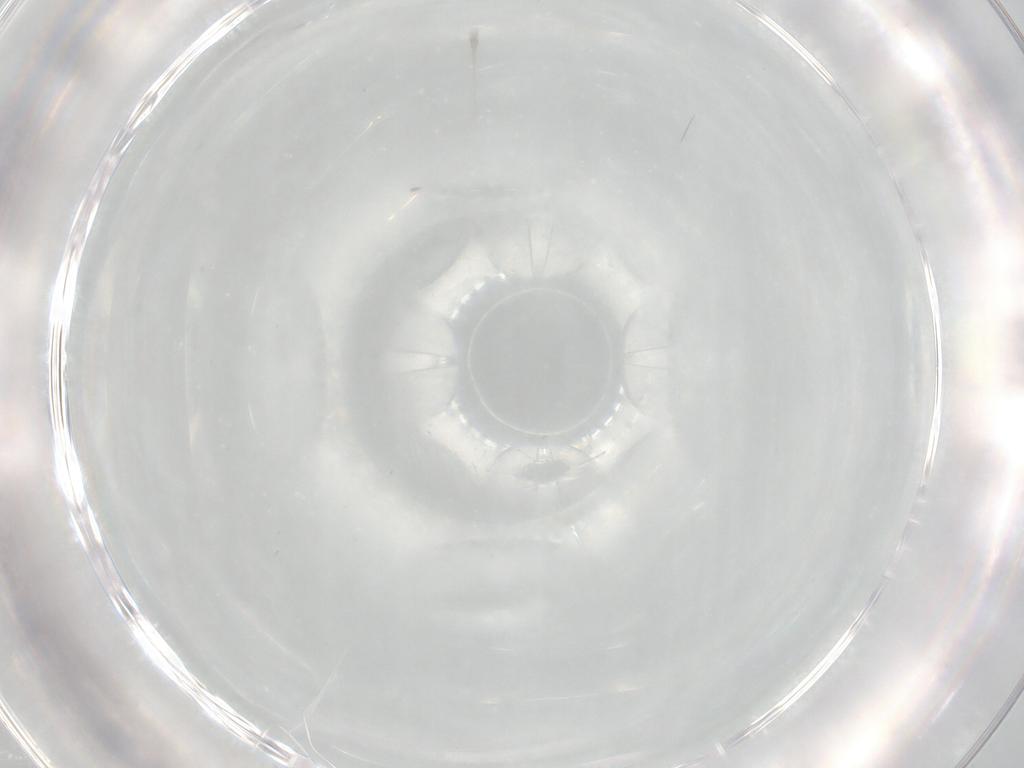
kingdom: Animalia
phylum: Arthropoda
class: Insecta
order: Diptera
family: Cecidomyiidae
